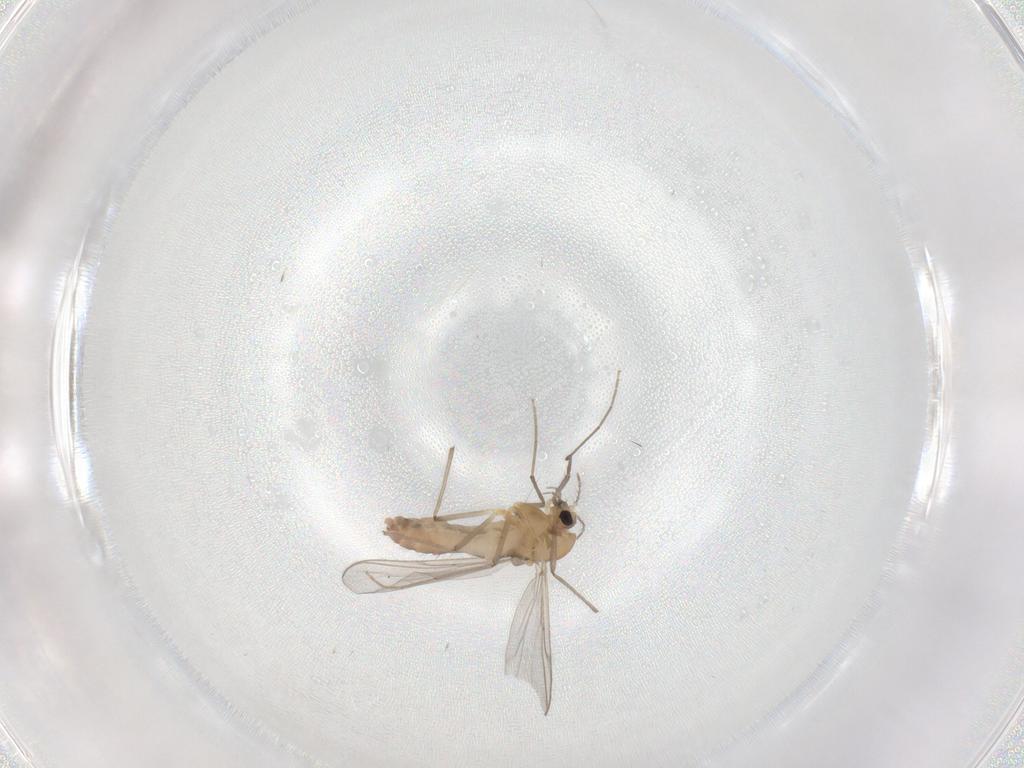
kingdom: Animalia
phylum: Arthropoda
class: Insecta
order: Diptera
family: Chironomidae
